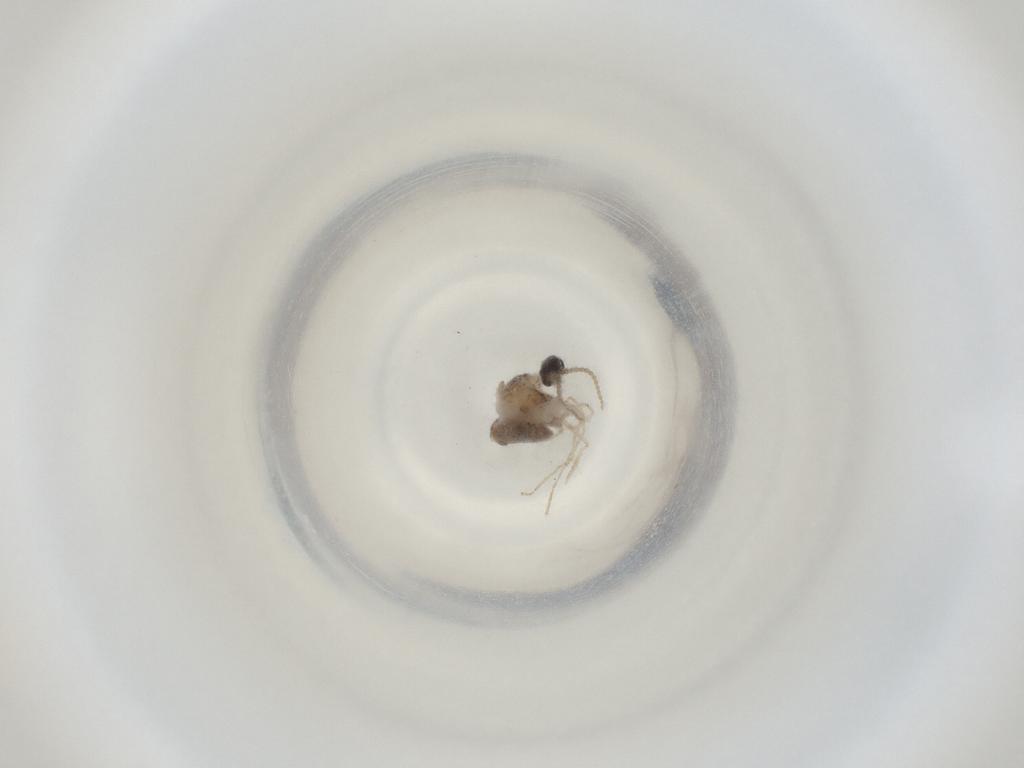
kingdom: Animalia
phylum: Arthropoda
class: Insecta
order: Diptera
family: Cecidomyiidae
